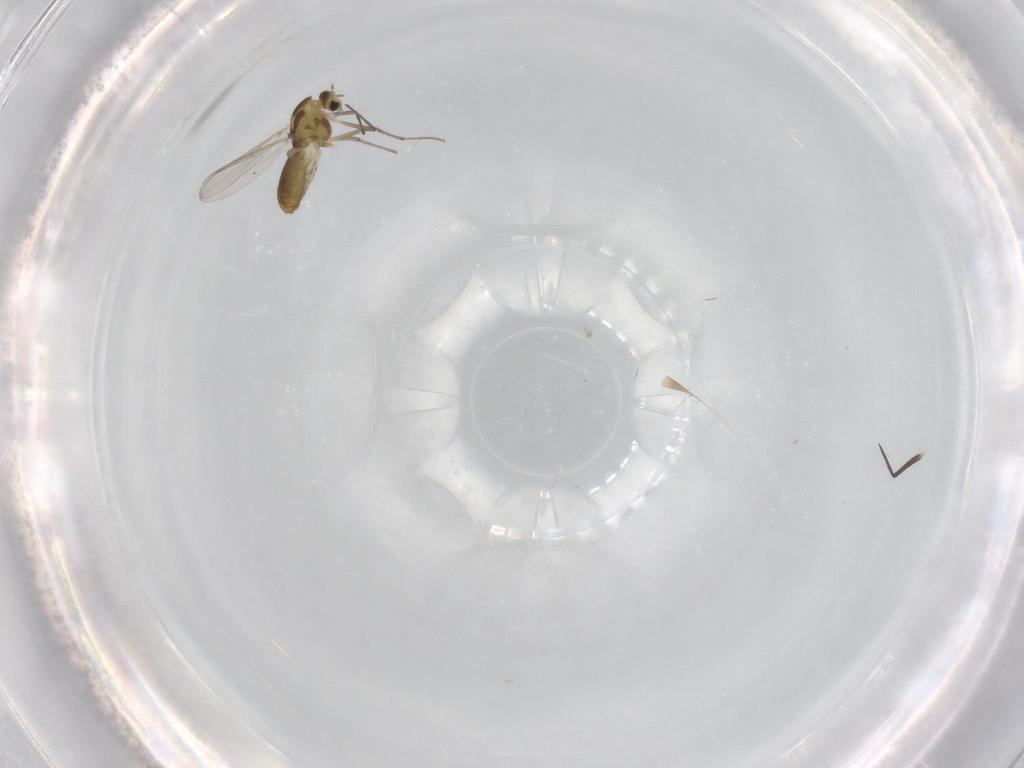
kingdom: Animalia
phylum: Arthropoda
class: Insecta
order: Diptera
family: Chironomidae
